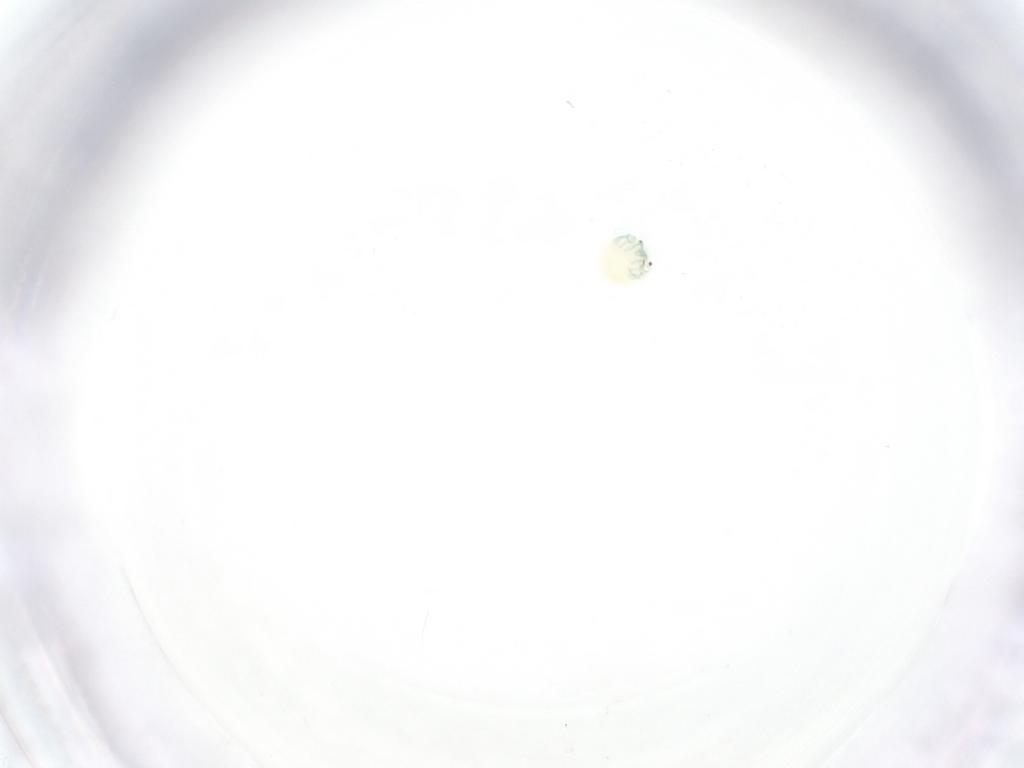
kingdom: Animalia
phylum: Arthropoda
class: Arachnida
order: Trombidiformes
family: Arrenuridae
